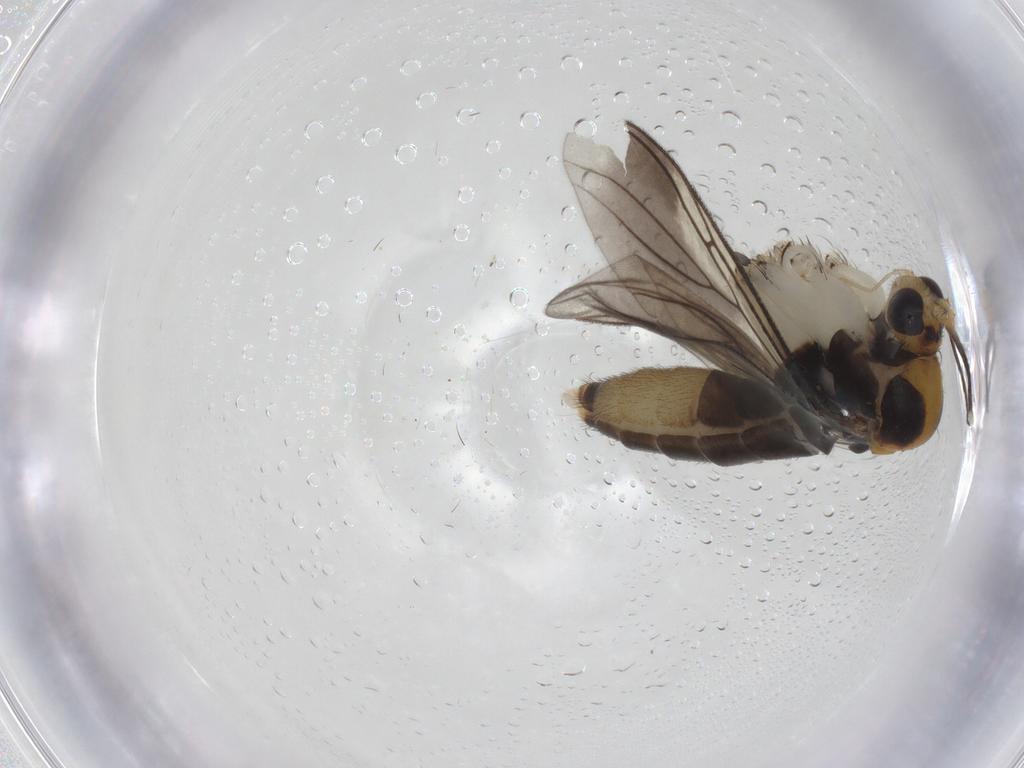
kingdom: Animalia
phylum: Arthropoda
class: Insecta
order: Diptera
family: Mycetophilidae
